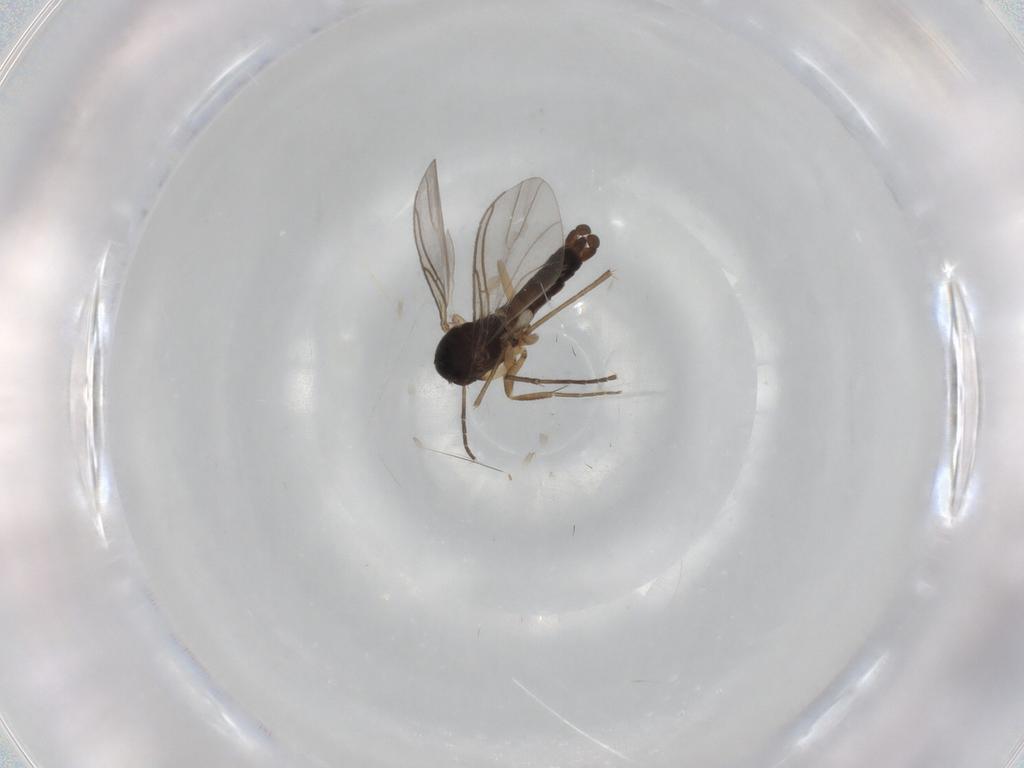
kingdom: Animalia
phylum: Arthropoda
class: Insecta
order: Diptera
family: Sciaridae
